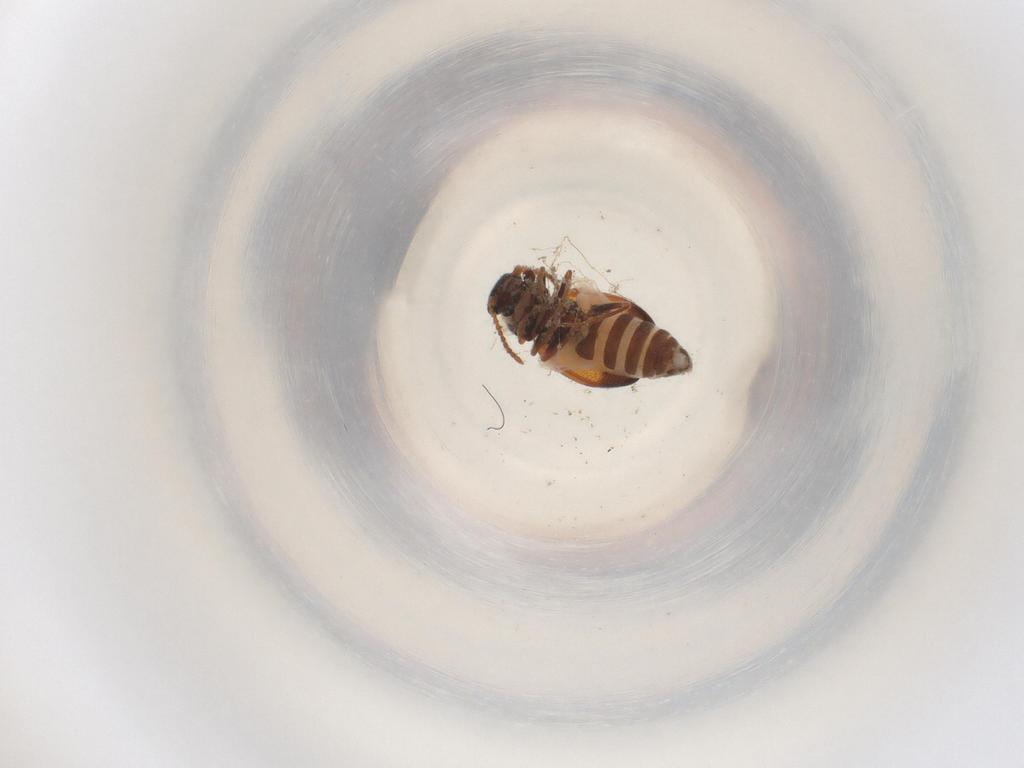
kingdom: Animalia
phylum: Arthropoda
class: Insecta
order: Coleoptera
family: Melyridae
